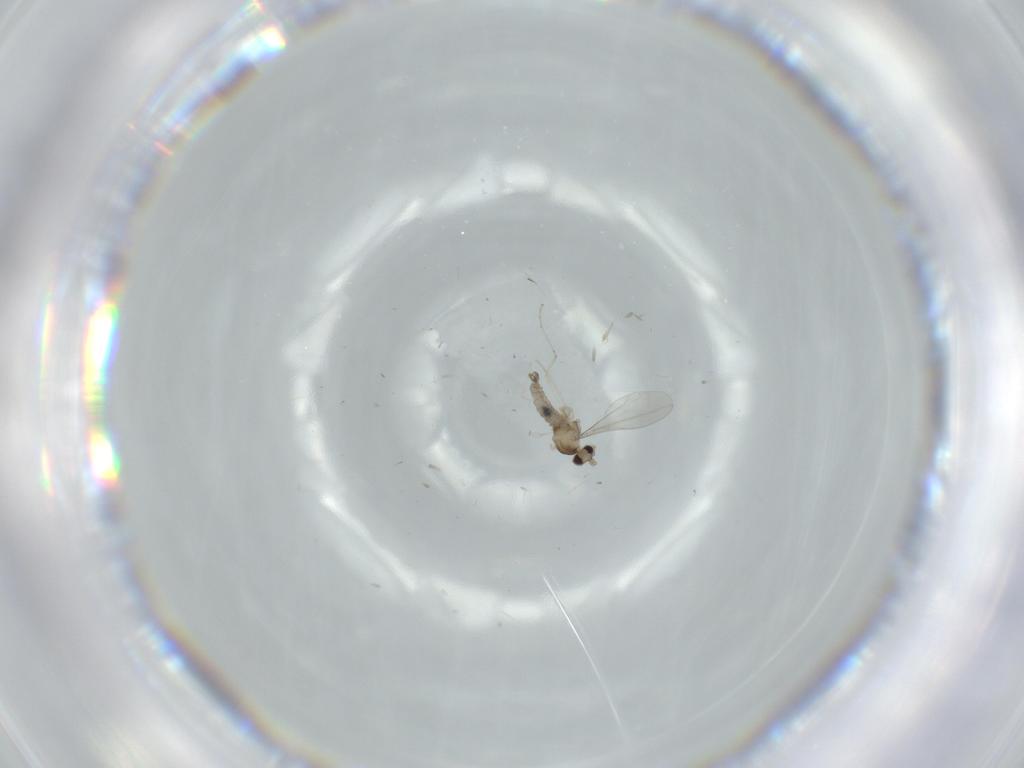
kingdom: Animalia
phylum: Arthropoda
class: Insecta
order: Diptera
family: Cecidomyiidae
